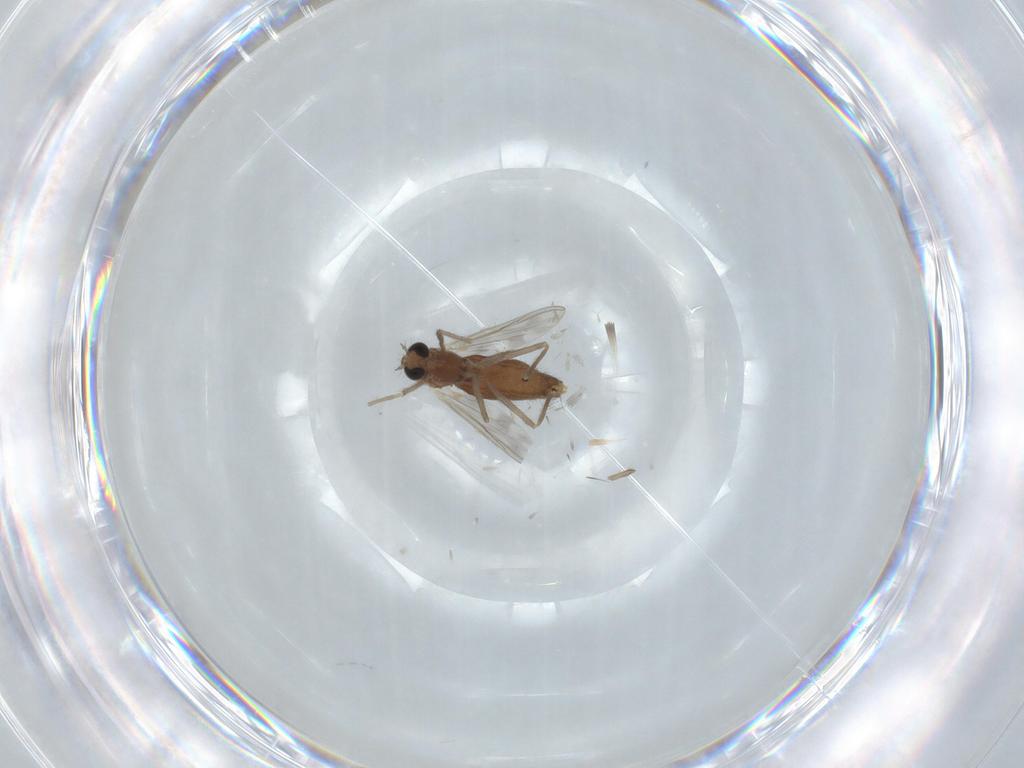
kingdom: Animalia
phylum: Arthropoda
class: Insecta
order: Diptera
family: Chironomidae
